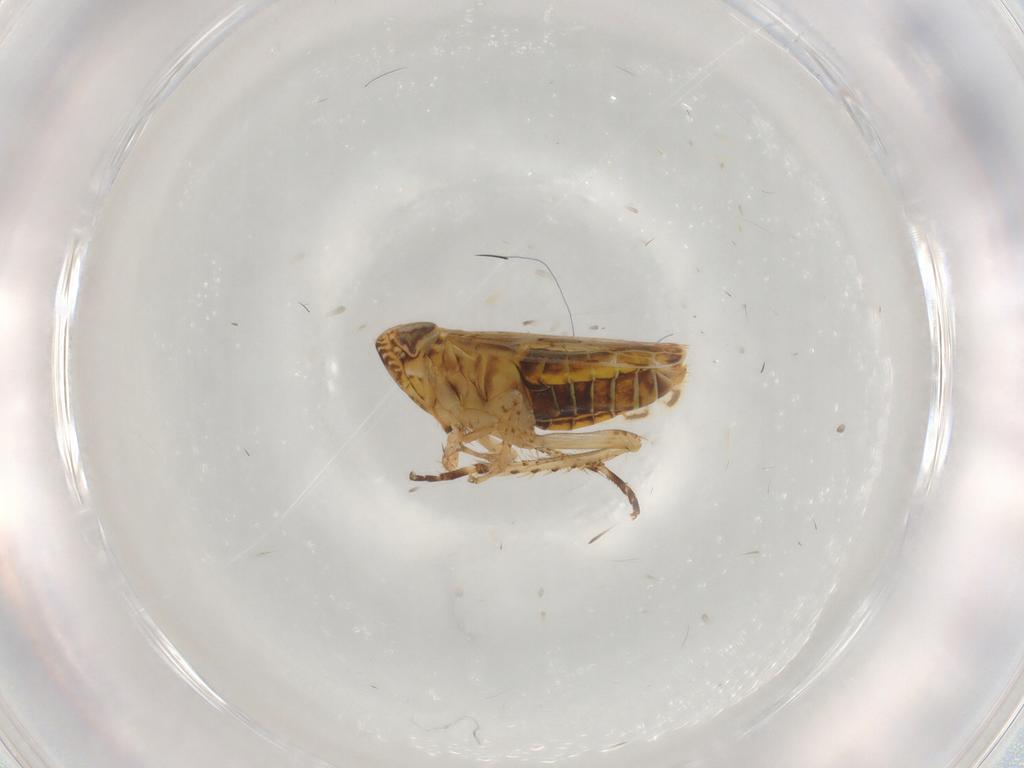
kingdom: Animalia
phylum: Arthropoda
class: Insecta
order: Hymenoptera
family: Dryinidae
